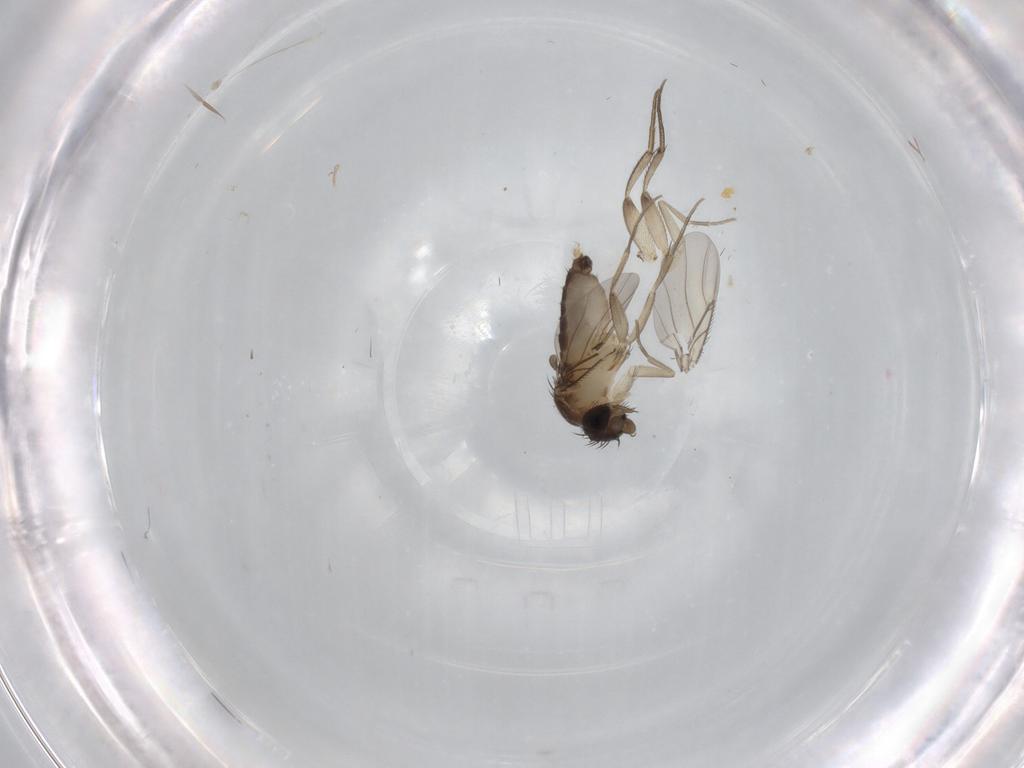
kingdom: Animalia
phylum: Arthropoda
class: Insecta
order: Diptera
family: Phoridae
